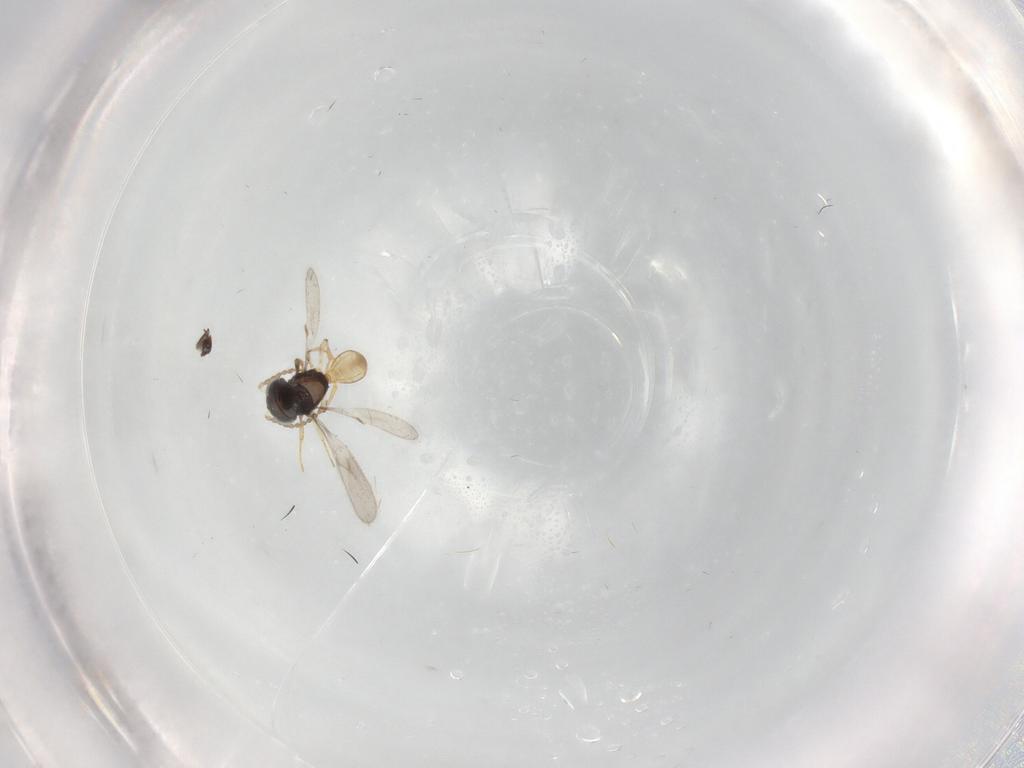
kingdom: Animalia
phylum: Arthropoda
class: Insecta
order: Hymenoptera
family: Scelionidae
